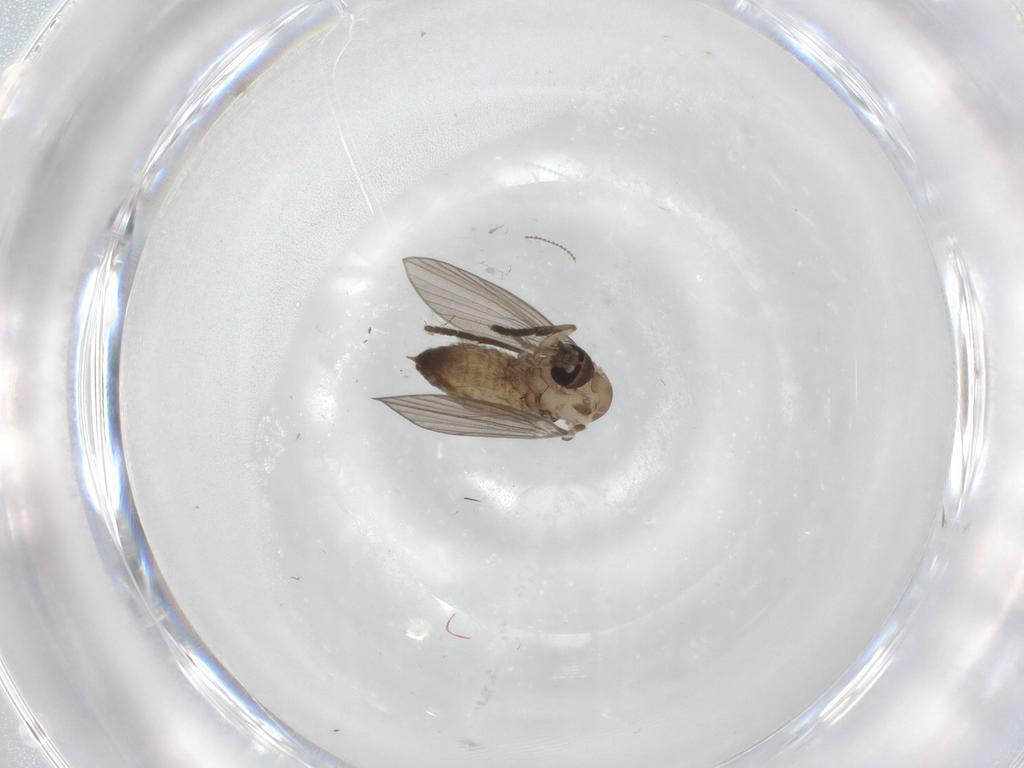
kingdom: Animalia
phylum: Arthropoda
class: Insecta
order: Diptera
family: Psychodidae
